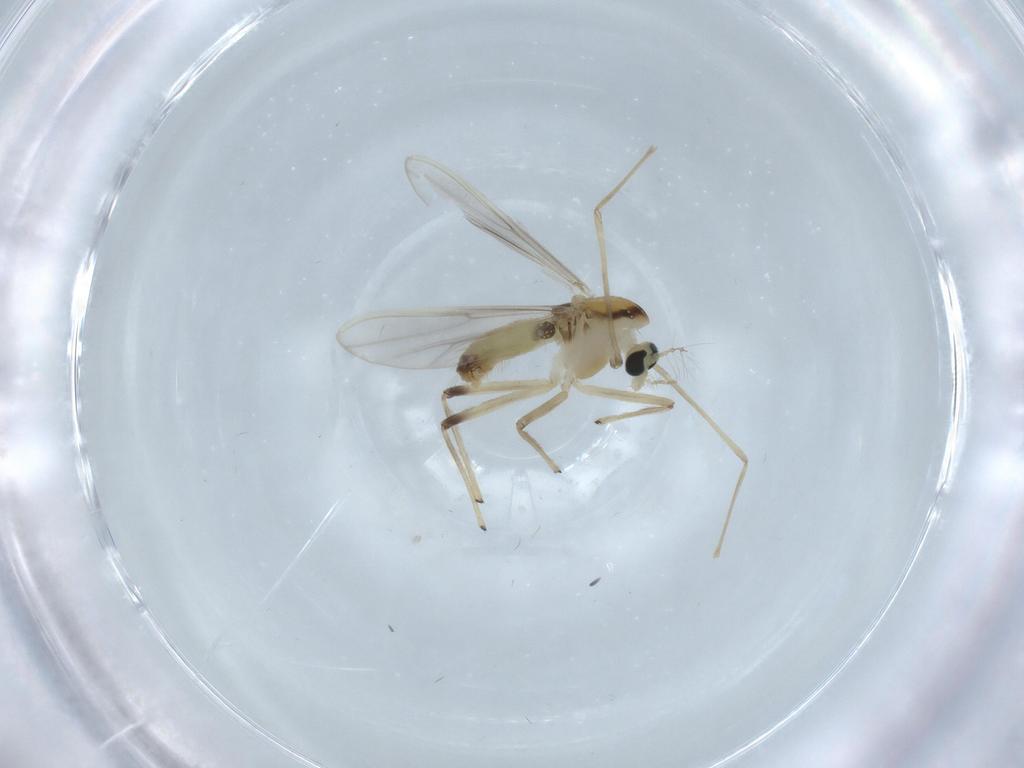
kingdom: Animalia
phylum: Arthropoda
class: Insecta
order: Diptera
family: Chironomidae
